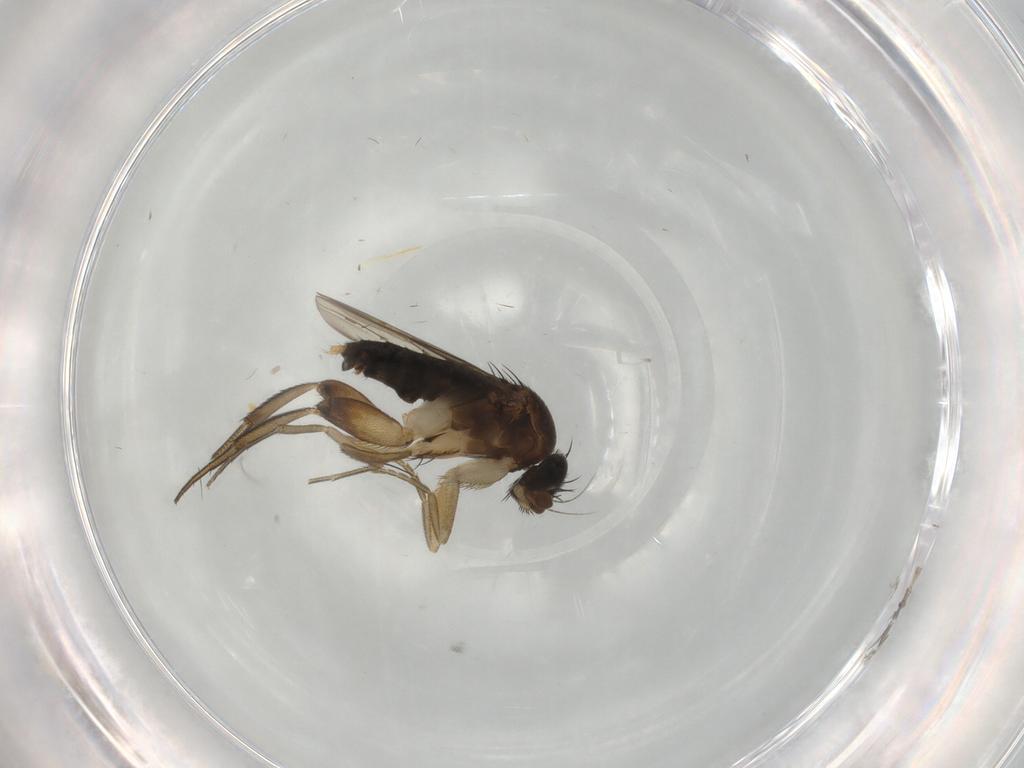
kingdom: Animalia
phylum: Arthropoda
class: Insecta
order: Diptera
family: Phoridae
